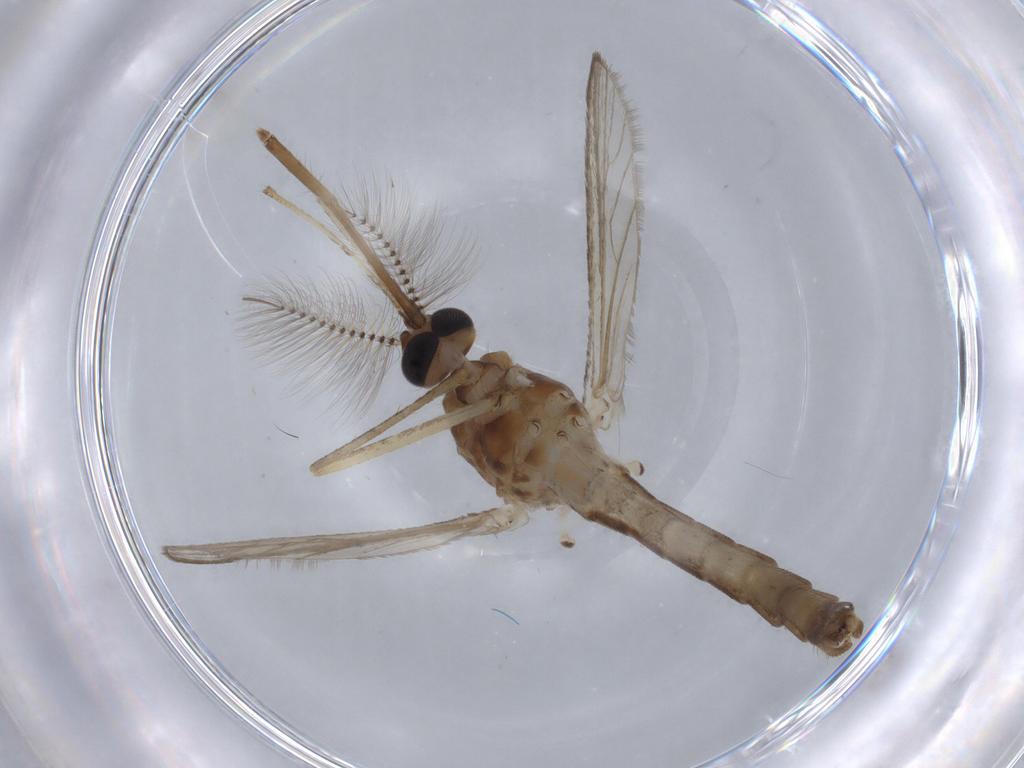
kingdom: Animalia
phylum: Arthropoda
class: Insecta
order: Diptera
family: Culicidae
